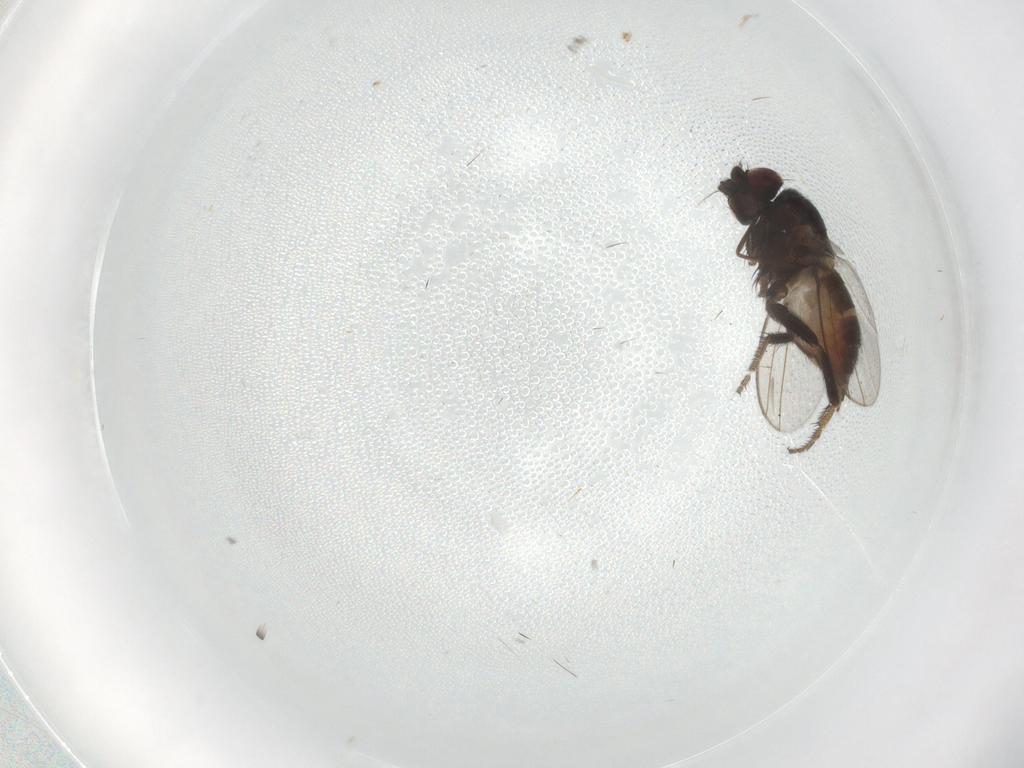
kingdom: Animalia
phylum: Arthropoda
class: Insecta
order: Diptera
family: Milichiidae
